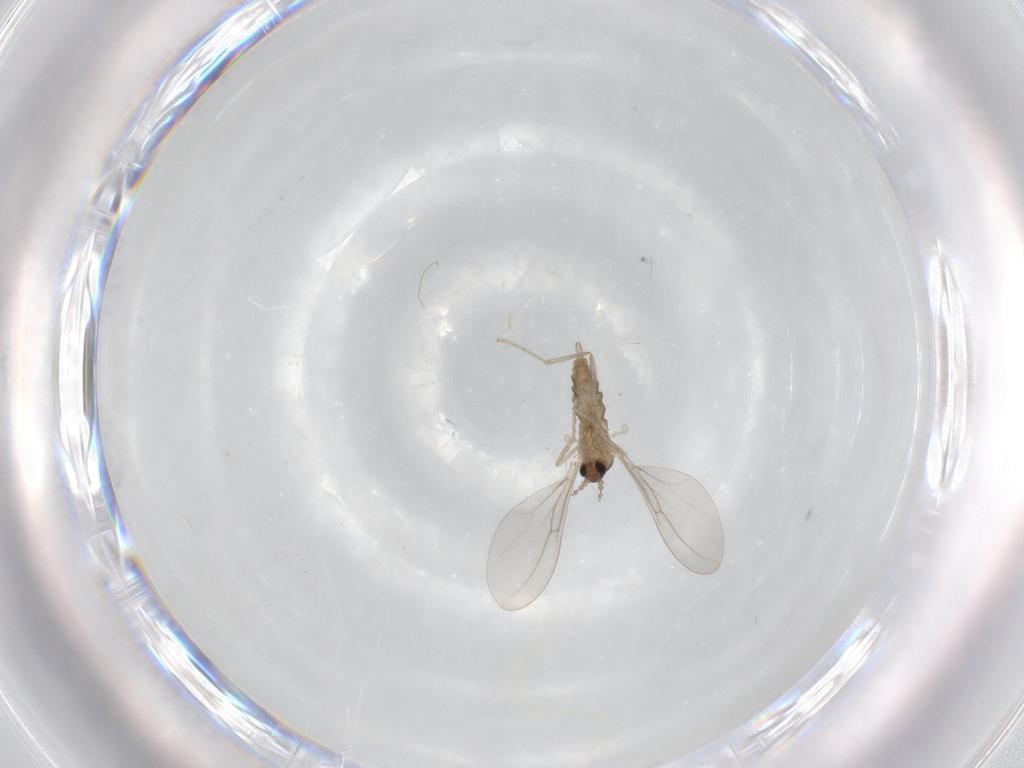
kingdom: Animalia
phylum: Arthropoda
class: Insecta
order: Diptera
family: Cecidomyiidae
